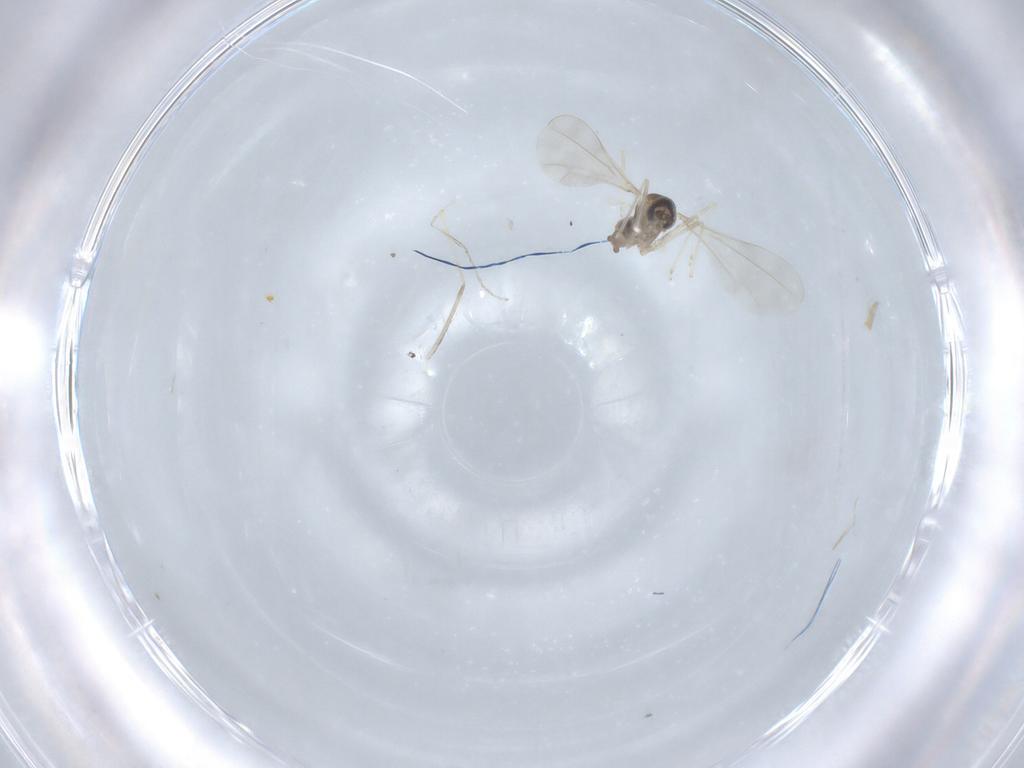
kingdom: Animalia
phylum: Arthropoda
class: Insecta
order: Diptera
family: Cecidomyiidae
